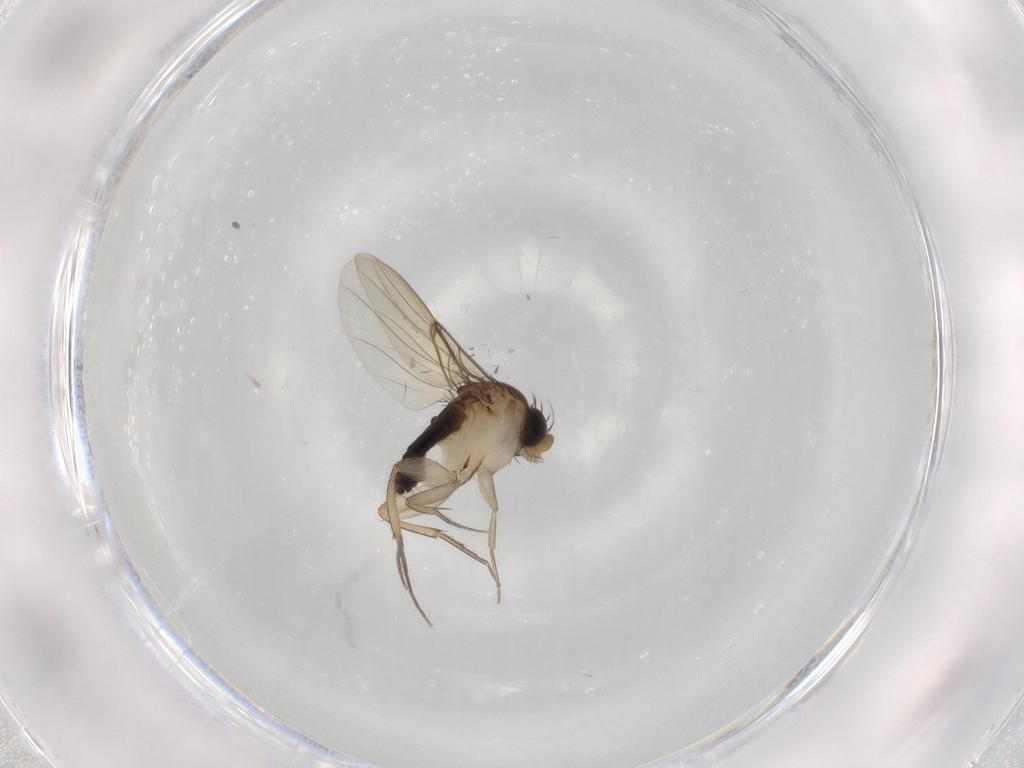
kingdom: Animalia
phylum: Arthropoda
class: Insecta
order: Diptera
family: Phoridae
